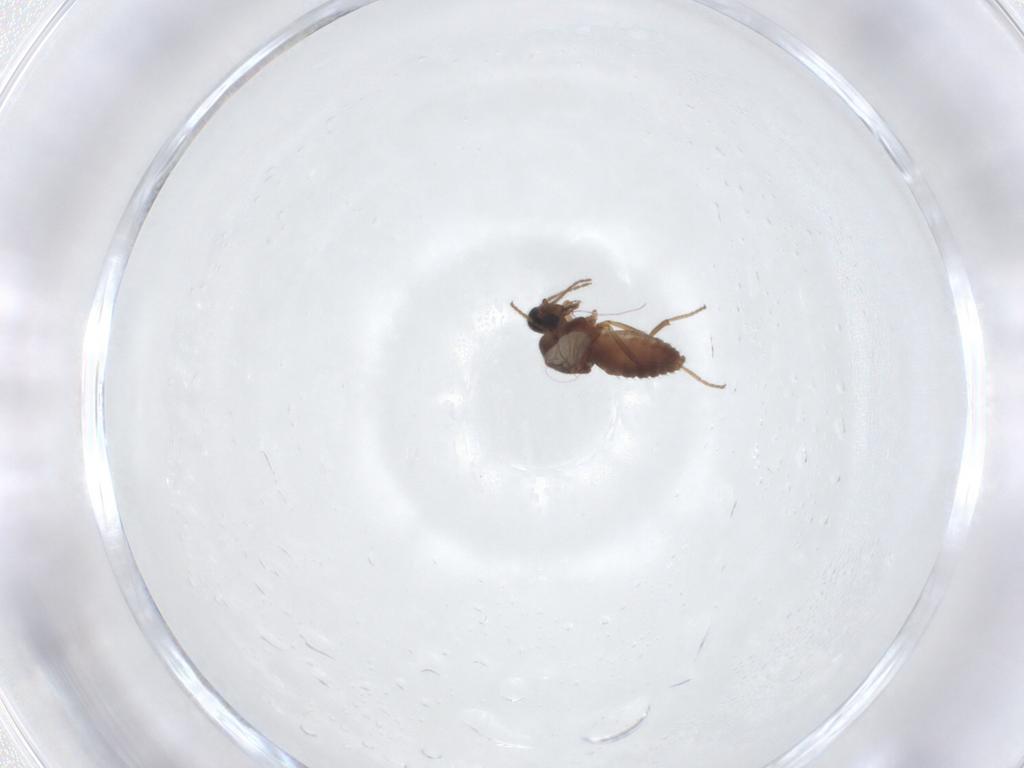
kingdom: Animalia
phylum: Arthropoda
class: Insecta
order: Diptera
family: Ceratopogonidae
